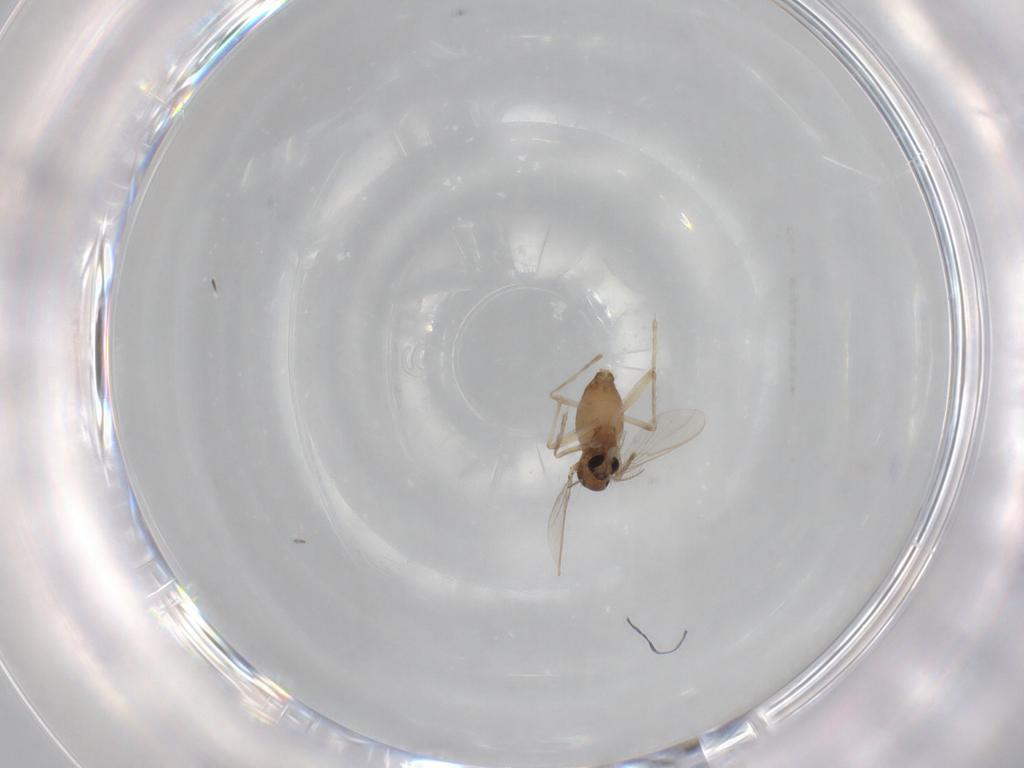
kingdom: Animalia
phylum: Arthropoda
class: Insecta
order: Diptera
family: Chironomidae
